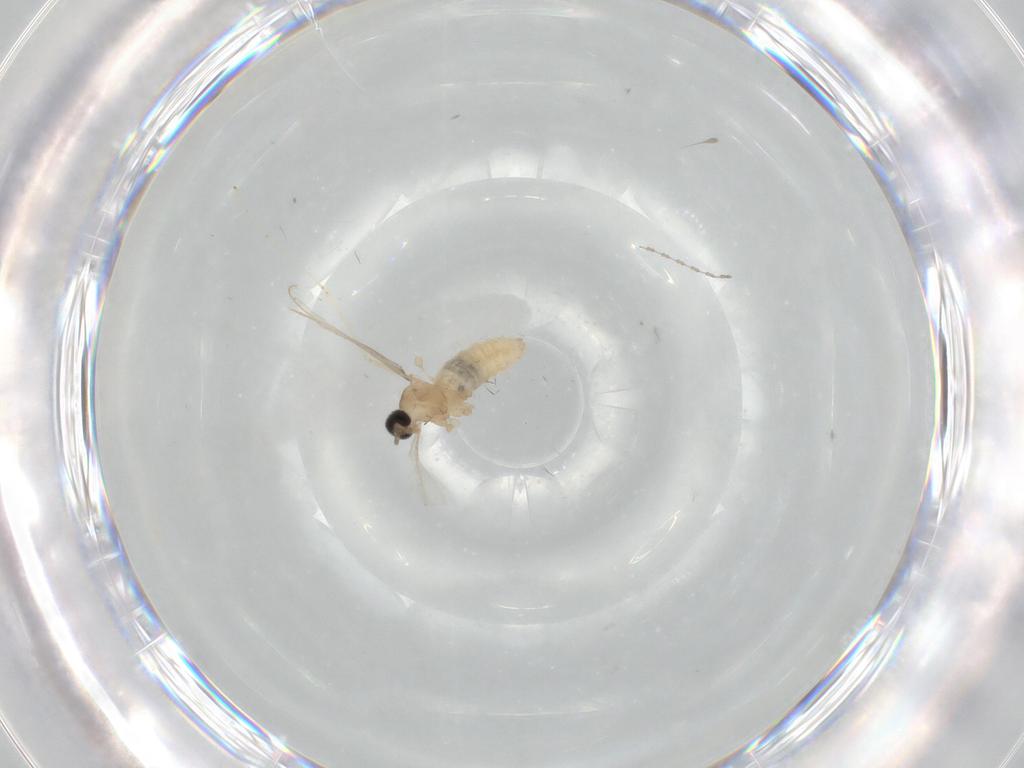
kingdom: Animalia
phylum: Arthropoda
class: Insecta
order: Diptera
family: Cecidomyiidae
